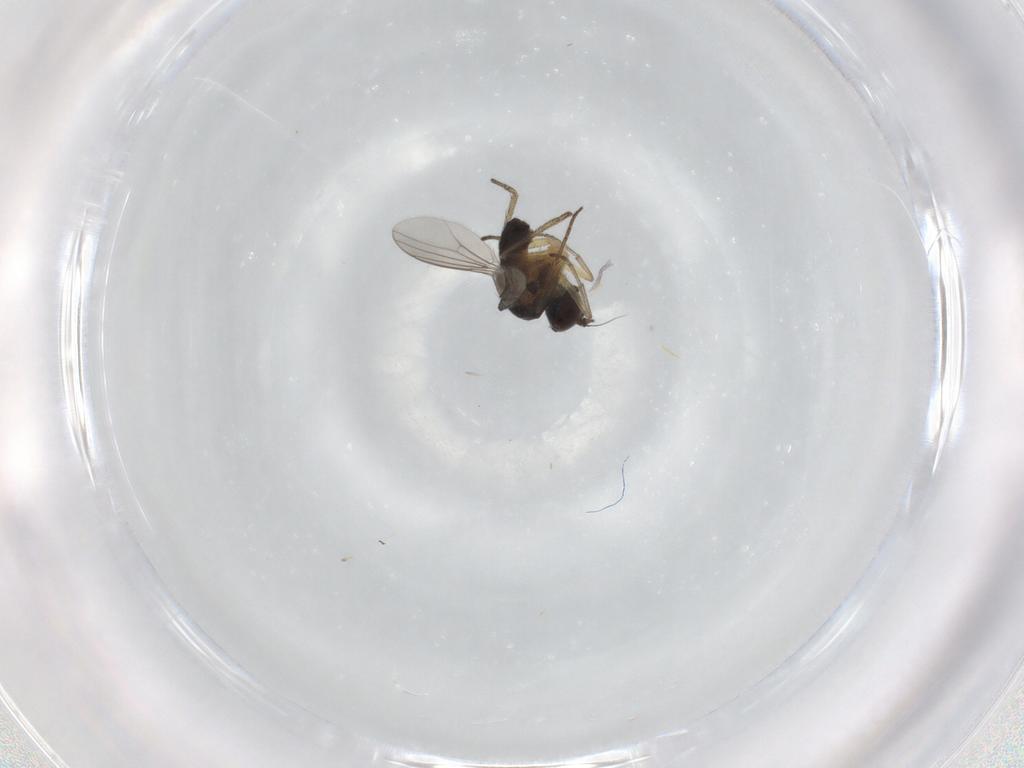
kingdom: Animalia
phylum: Arthropoda
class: Insecta
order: Diptera
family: Dolichopodidae
